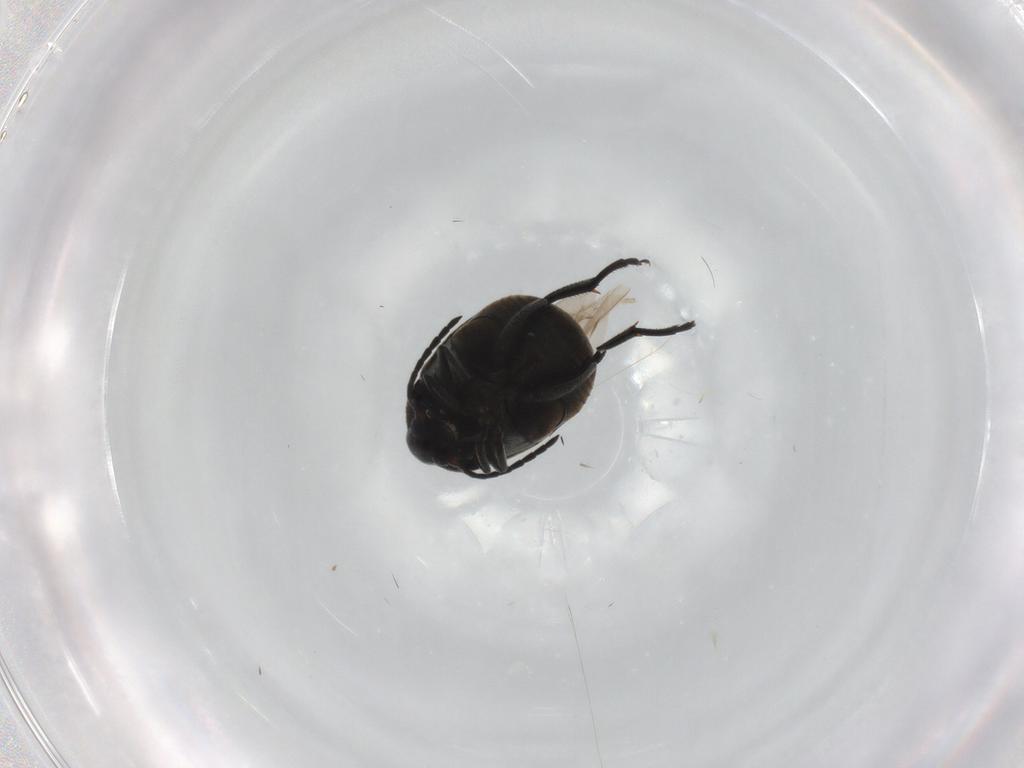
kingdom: Animalia
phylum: Arthropoda
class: Insecta
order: Coleoptera
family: Chrysomelidae
